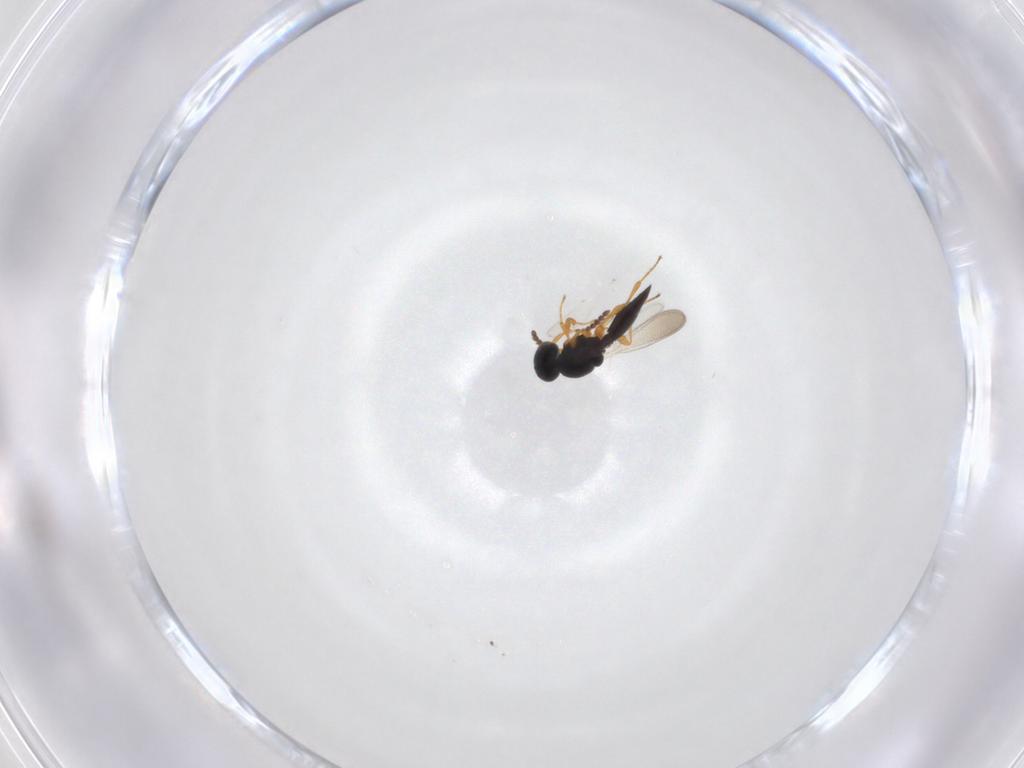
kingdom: Animalia
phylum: Arthropoda
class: Insecta
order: Hymenoptera
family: Platygastridae
